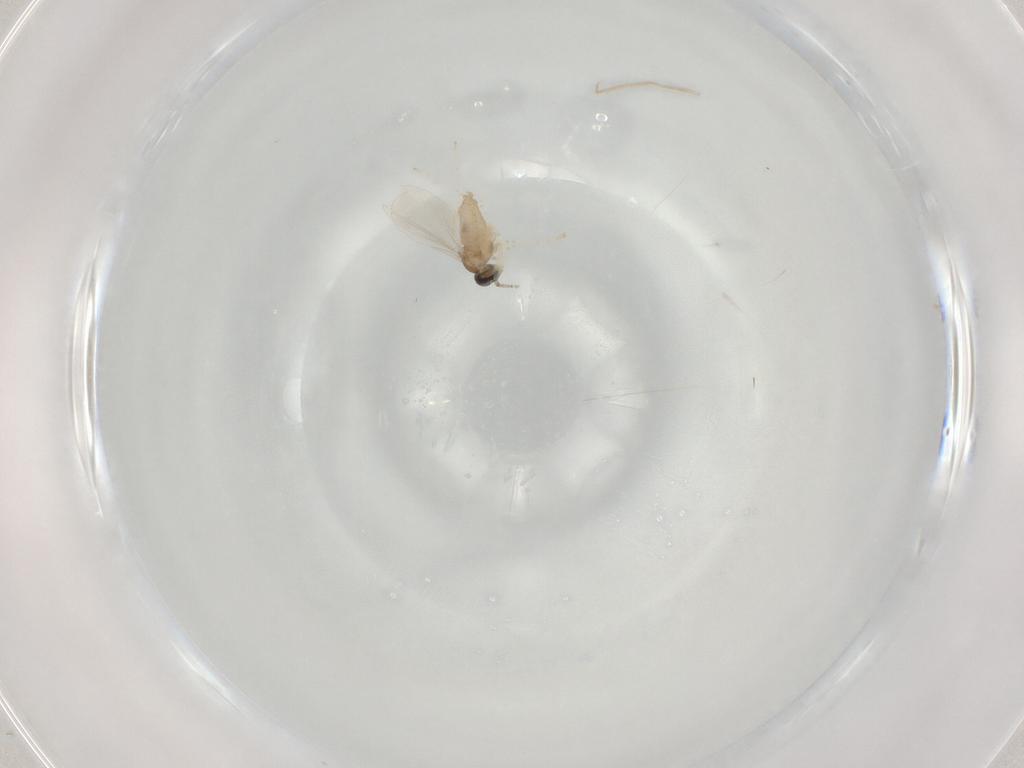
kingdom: Animalia
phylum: Arthropoda
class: Insecta
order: Diptera
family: Cecidomyiidae
